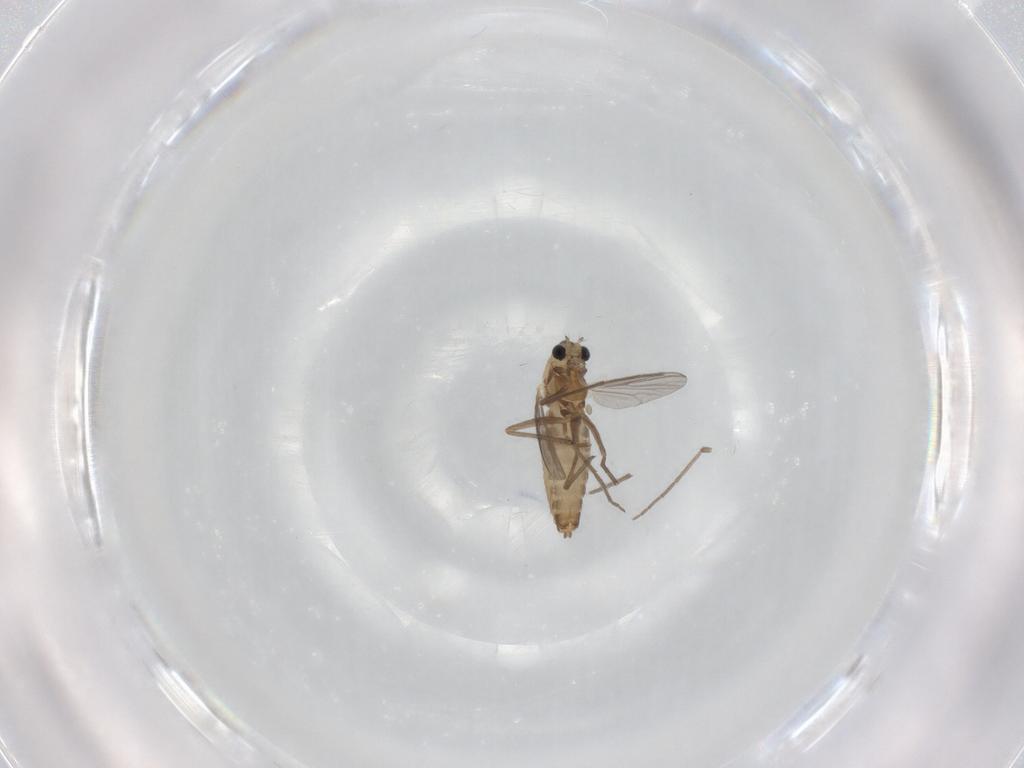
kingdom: Animalia
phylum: Arthropoda
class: Insecta
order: Diptera
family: Chironomidae
